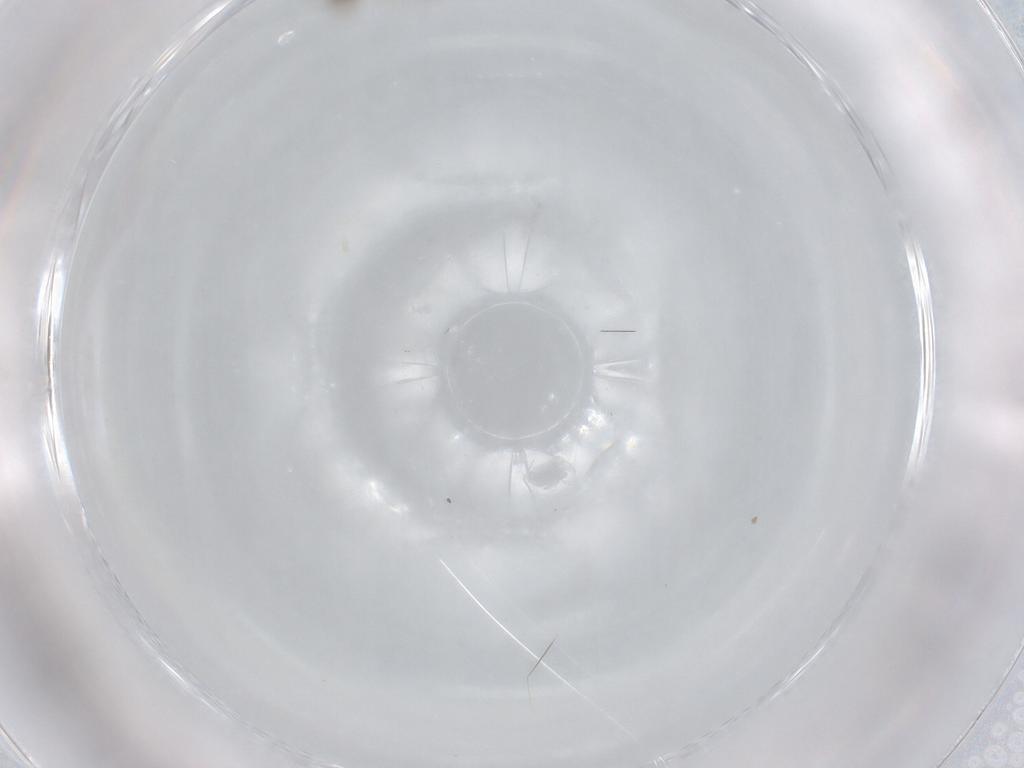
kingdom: Animalia
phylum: Arthropoda
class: Insecta
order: Diptera
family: Cecidomyiidae
